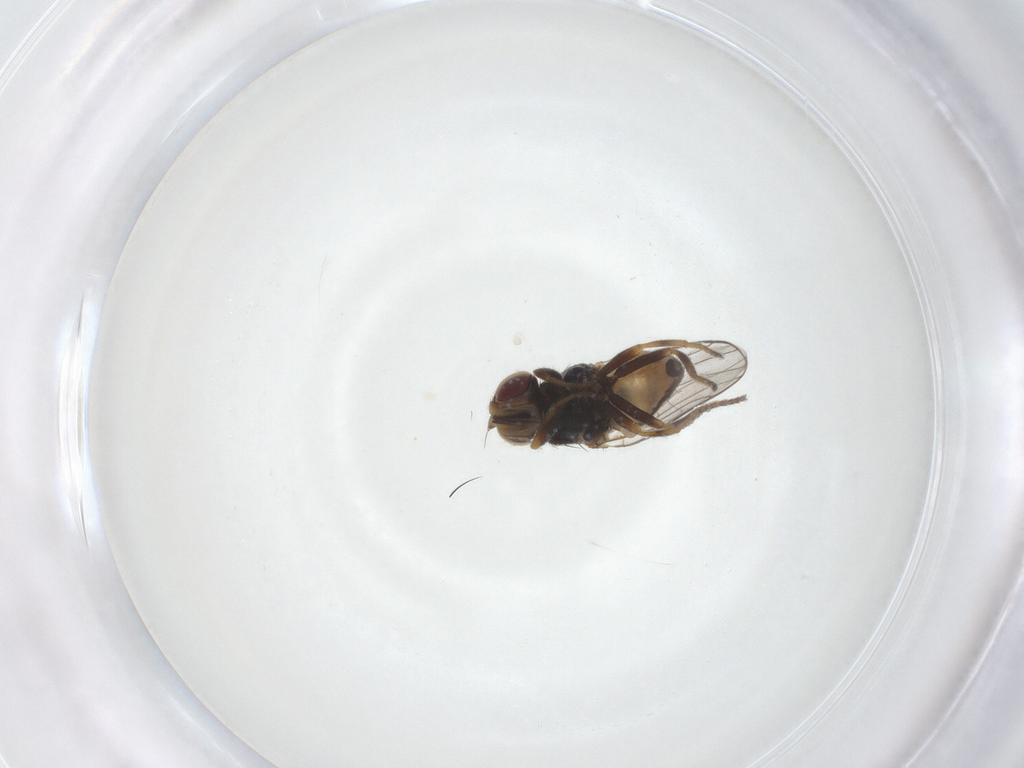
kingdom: Animalia
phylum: Arthropoda
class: Insecta
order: Diptera
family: Chloropidae
